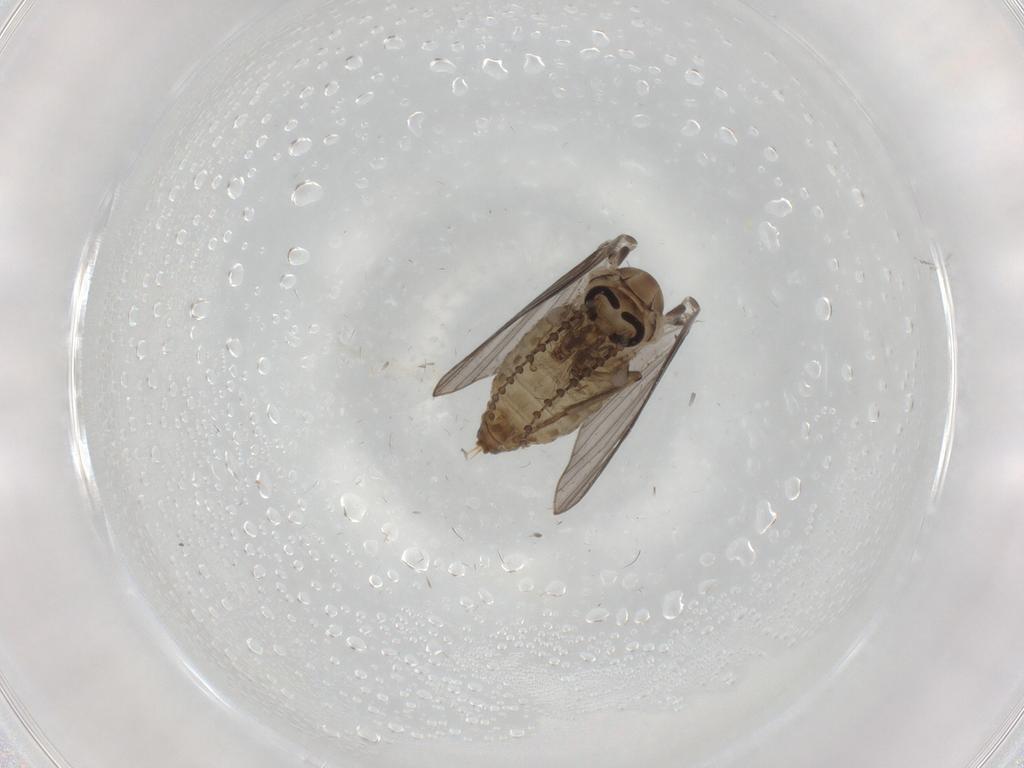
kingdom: Animalia
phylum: Arthropoda
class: Insecta
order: Diptera
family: Psychodidae
